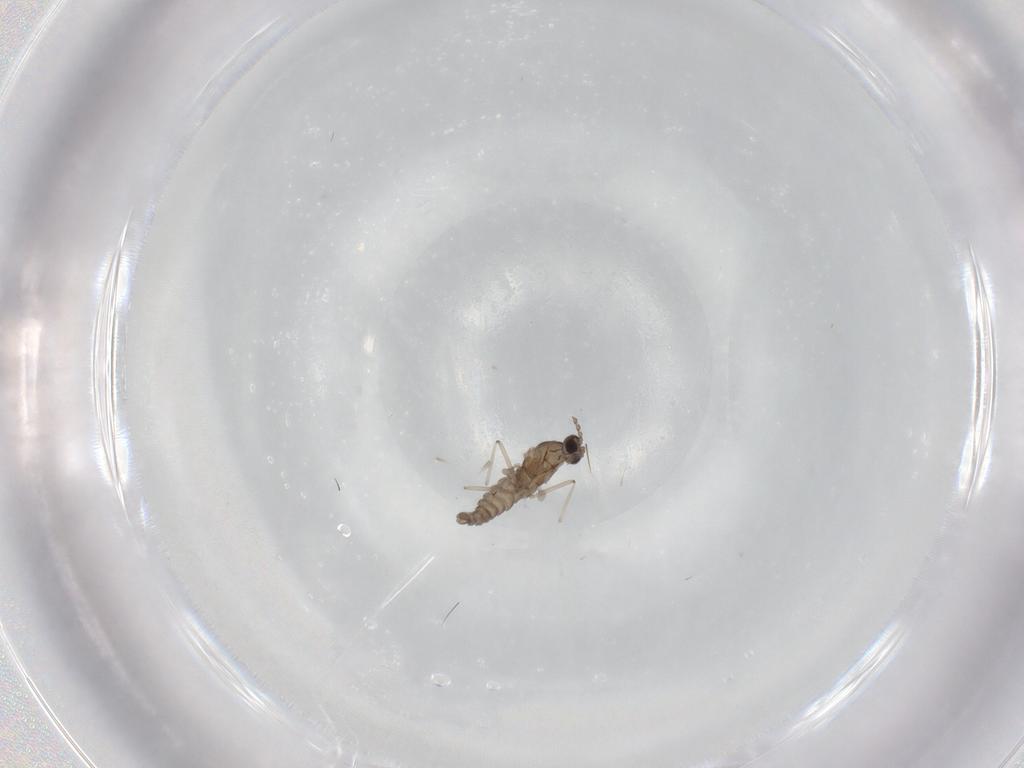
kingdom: Animalia
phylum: Arthropoda
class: Insecta
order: Diptera
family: Cecidomyiidae
